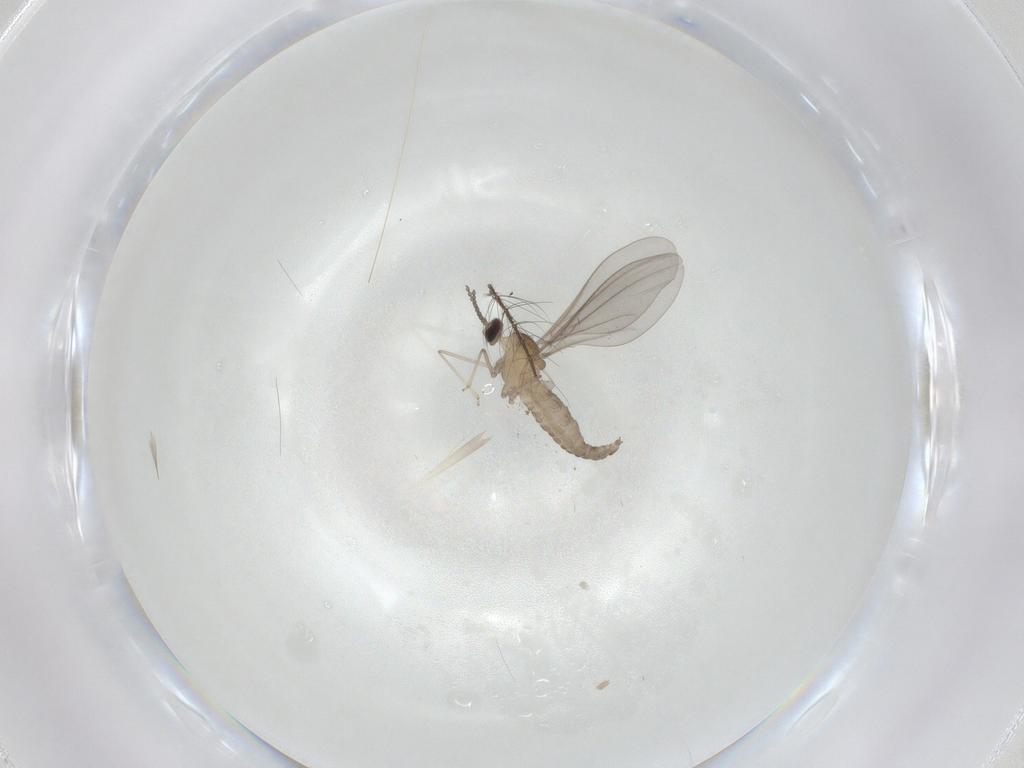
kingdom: Animalia
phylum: Arthropoda
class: Insecta
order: Diptera
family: Cecidomyiidae
